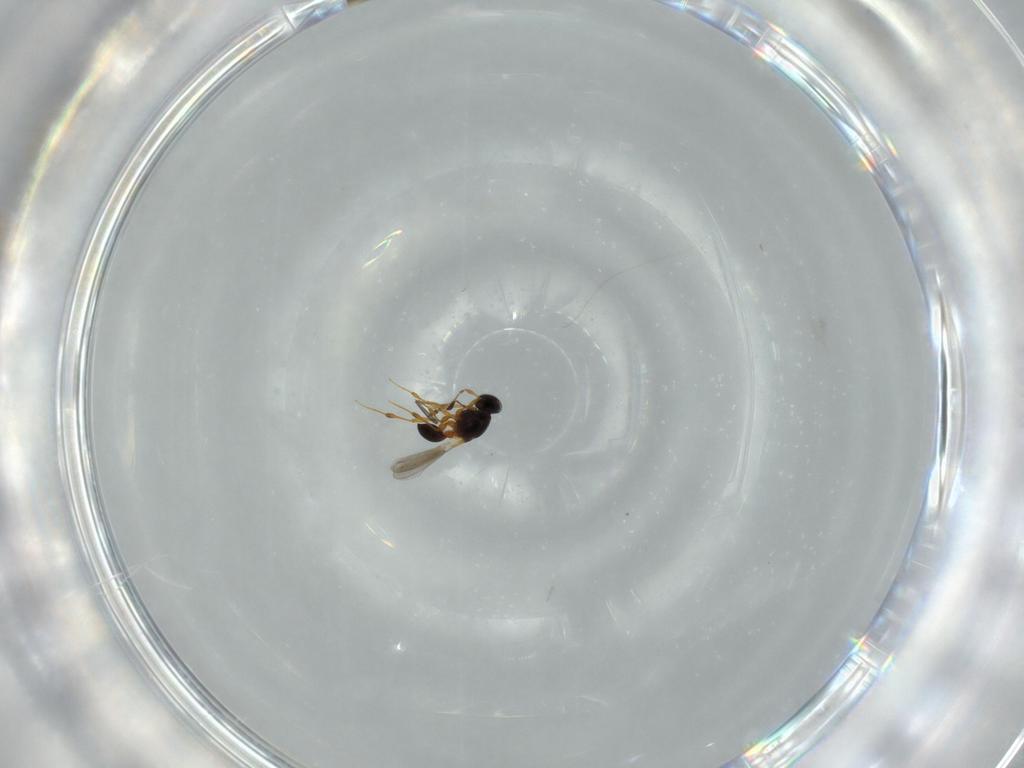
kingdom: Animalia
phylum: Arthropoda
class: Insecta
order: Hymenoptera
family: Platygastridae
